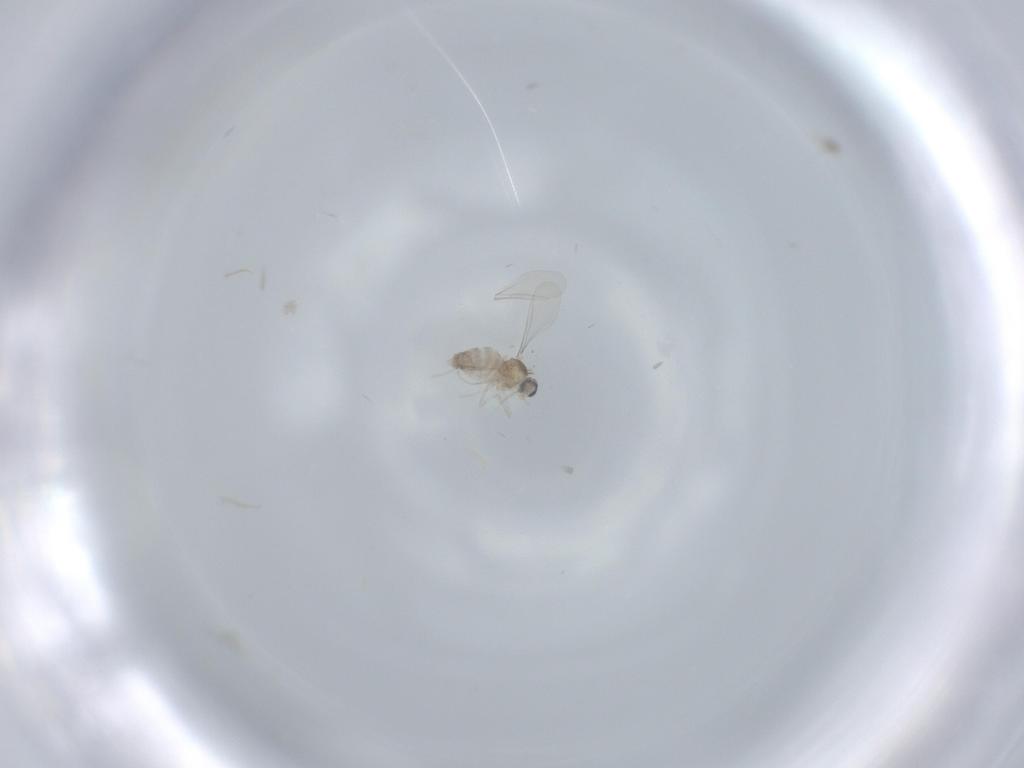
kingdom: Animalia
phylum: Arthropoda
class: Insecta
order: Diptera
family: Cecidomyiidae
